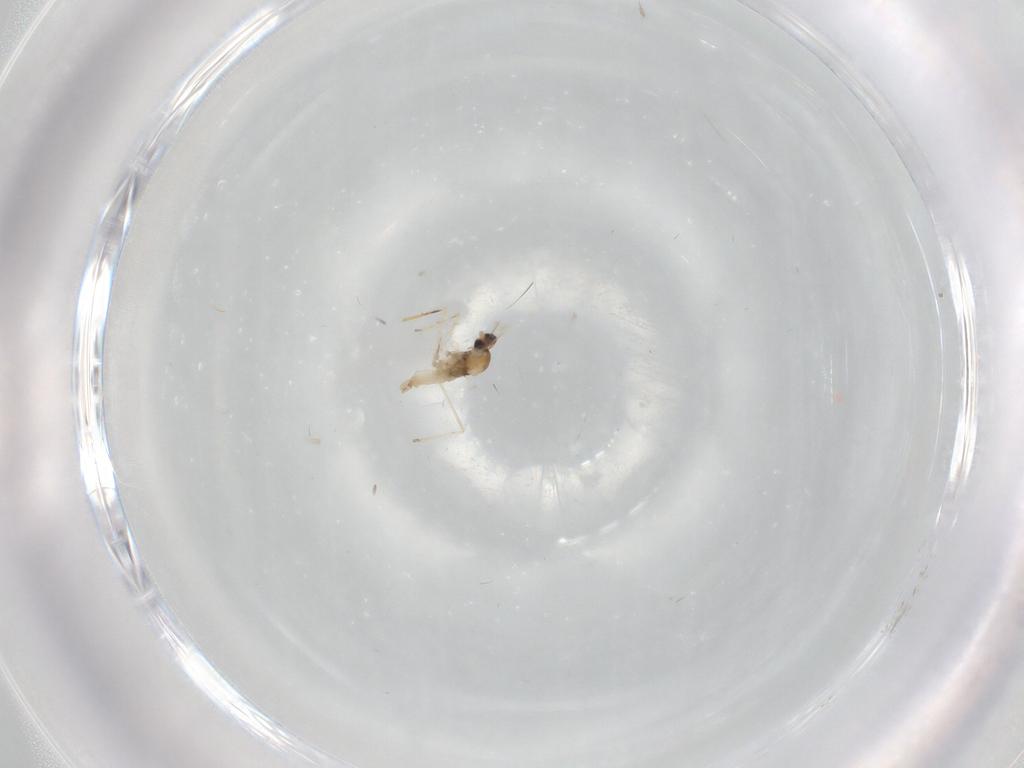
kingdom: Animalia
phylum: Arthropoda
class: Insecta
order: Diptera
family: Cecidomyiidae
